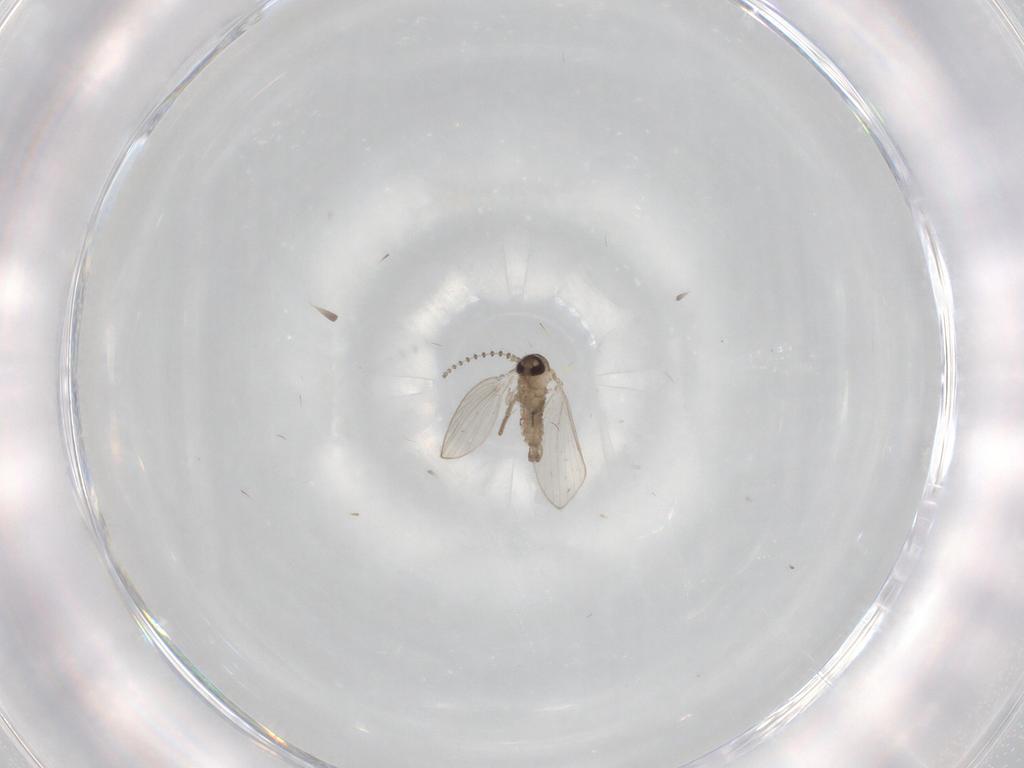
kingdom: Animalia
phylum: Arthropoda
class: Insecta
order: Diptera
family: Psychodidae
